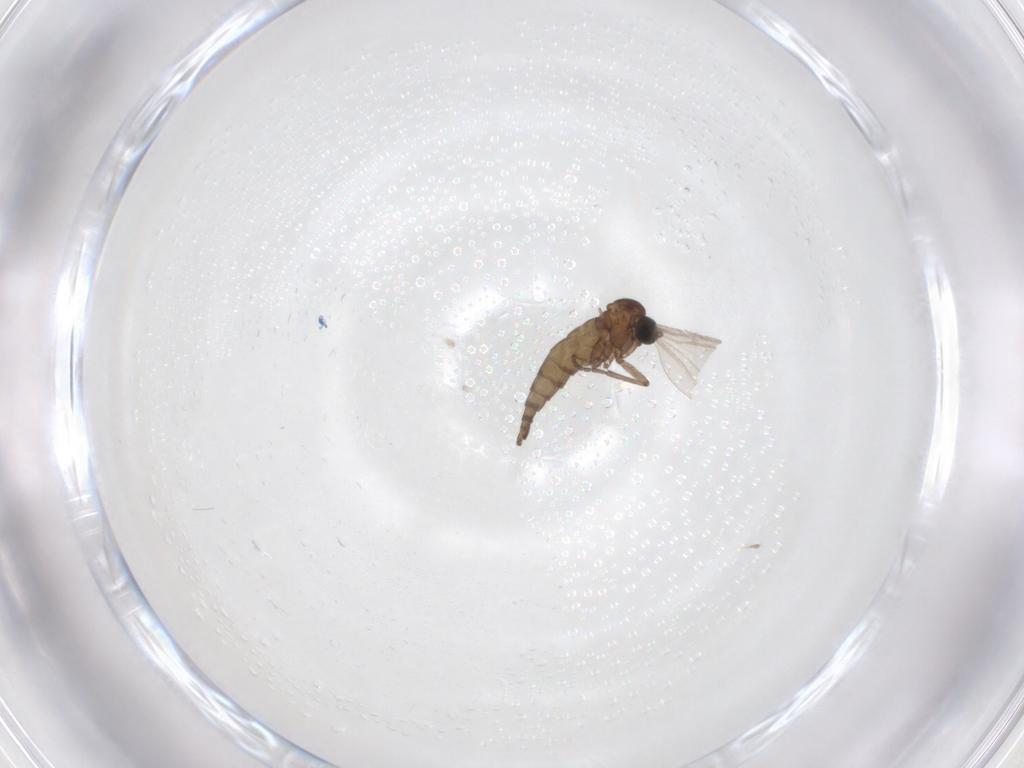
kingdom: Animalia
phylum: Arthropoda
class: Insecta
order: Diptera
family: Sciaridae
